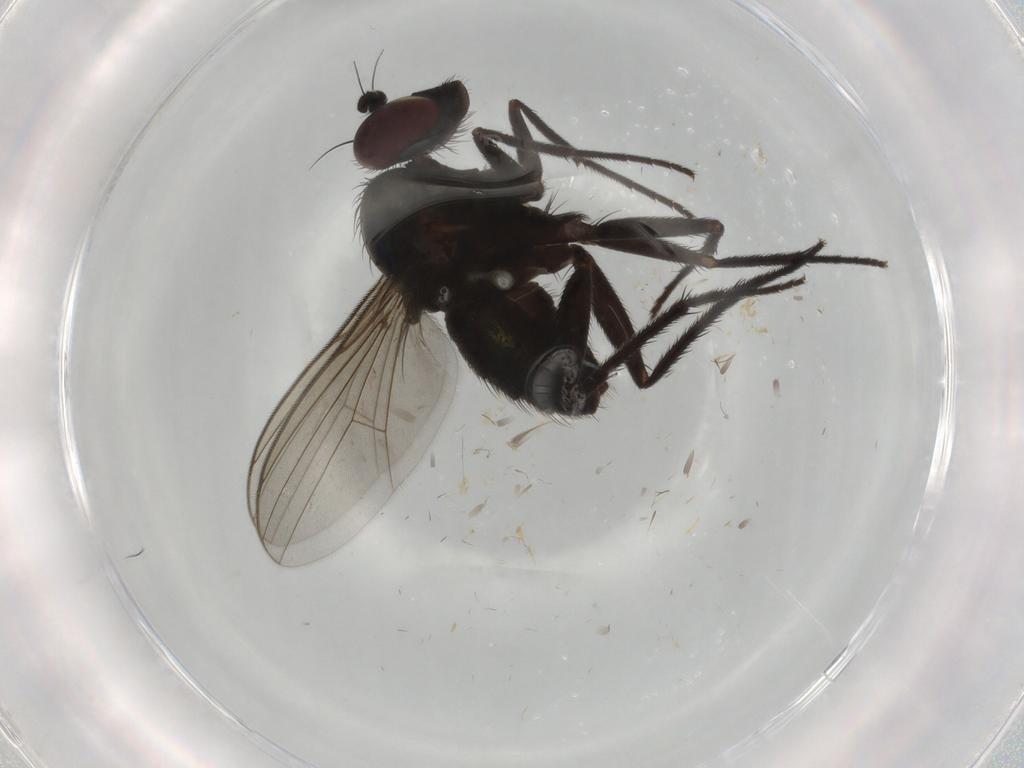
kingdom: Animalia
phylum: Arthropoda
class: Insecta
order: Diptera
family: Dolichopodidae
